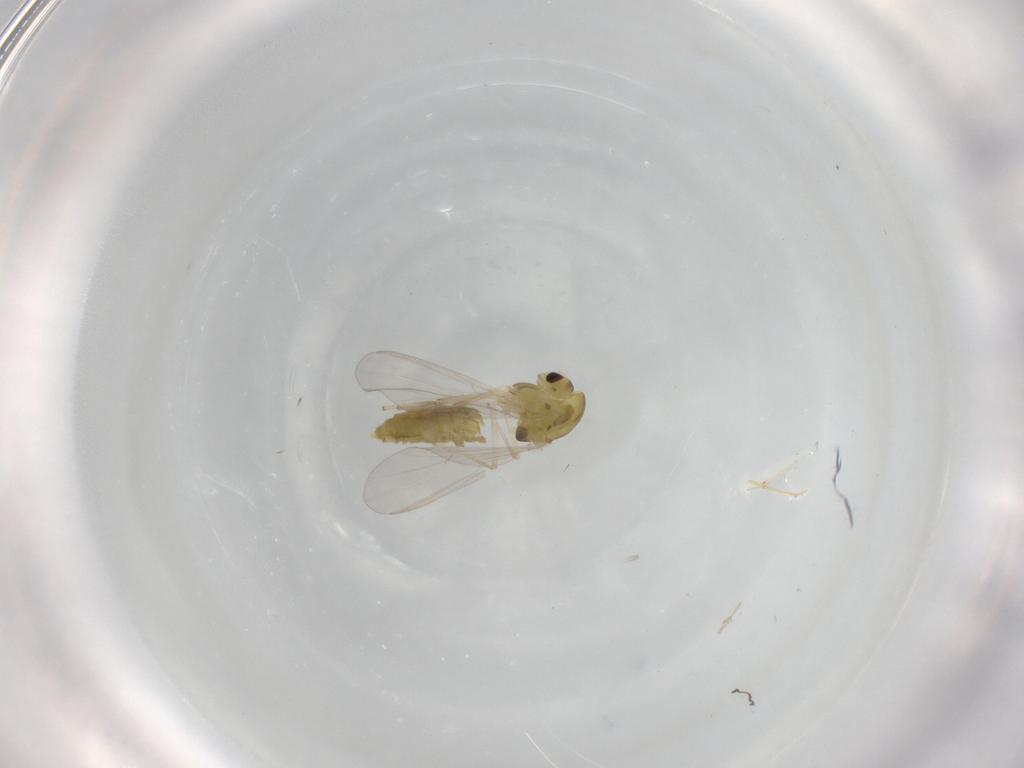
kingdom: Animalia
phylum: Arthropoda
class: Insecta
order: Diptera
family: Chironomidae
